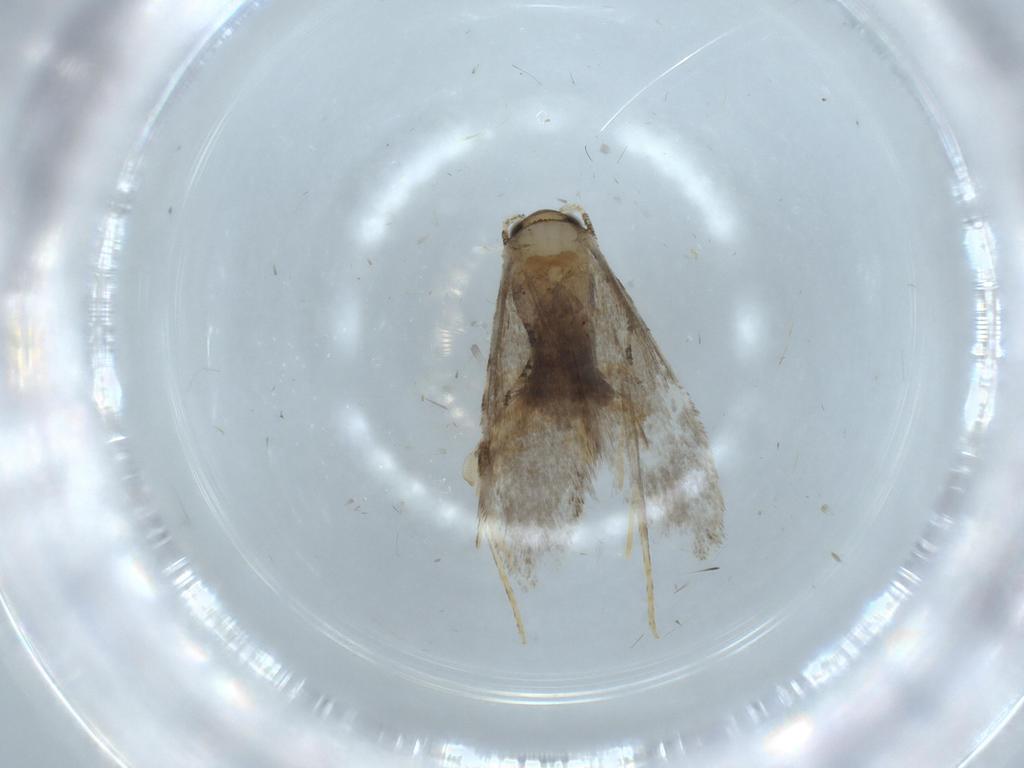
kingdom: Animalia
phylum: Arthropoda
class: Insecta
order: Lepidoptera
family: Tineidae
